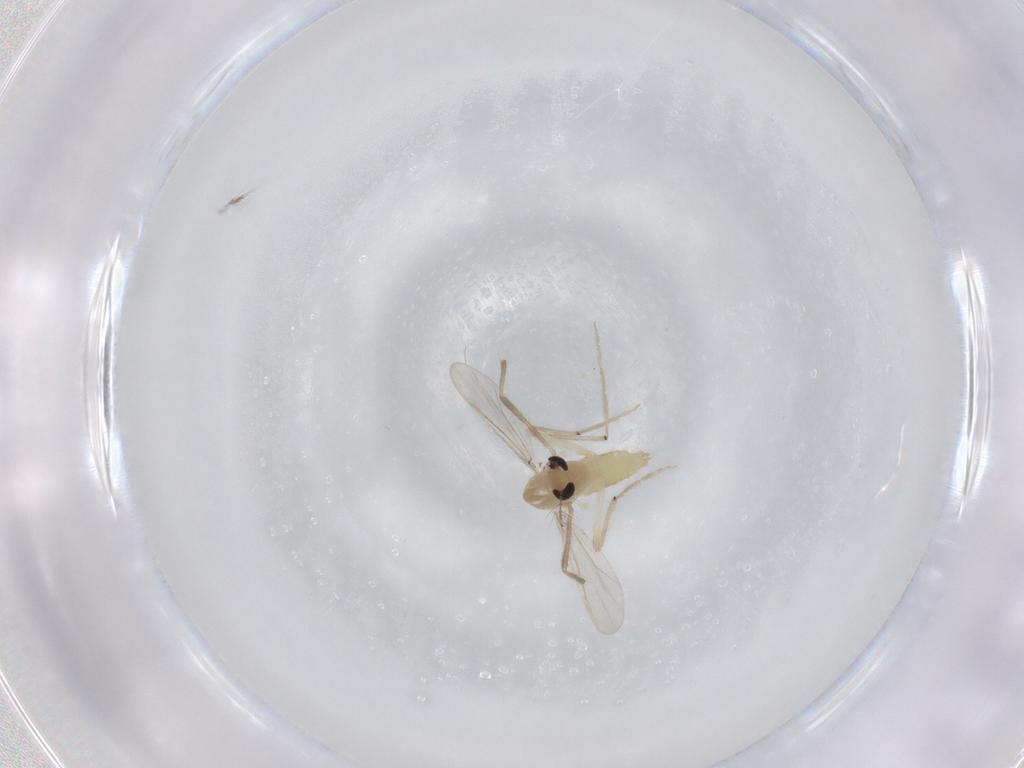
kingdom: Animalia
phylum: Arthropoda
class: Insecta
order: Diptera
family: Chironomidae
